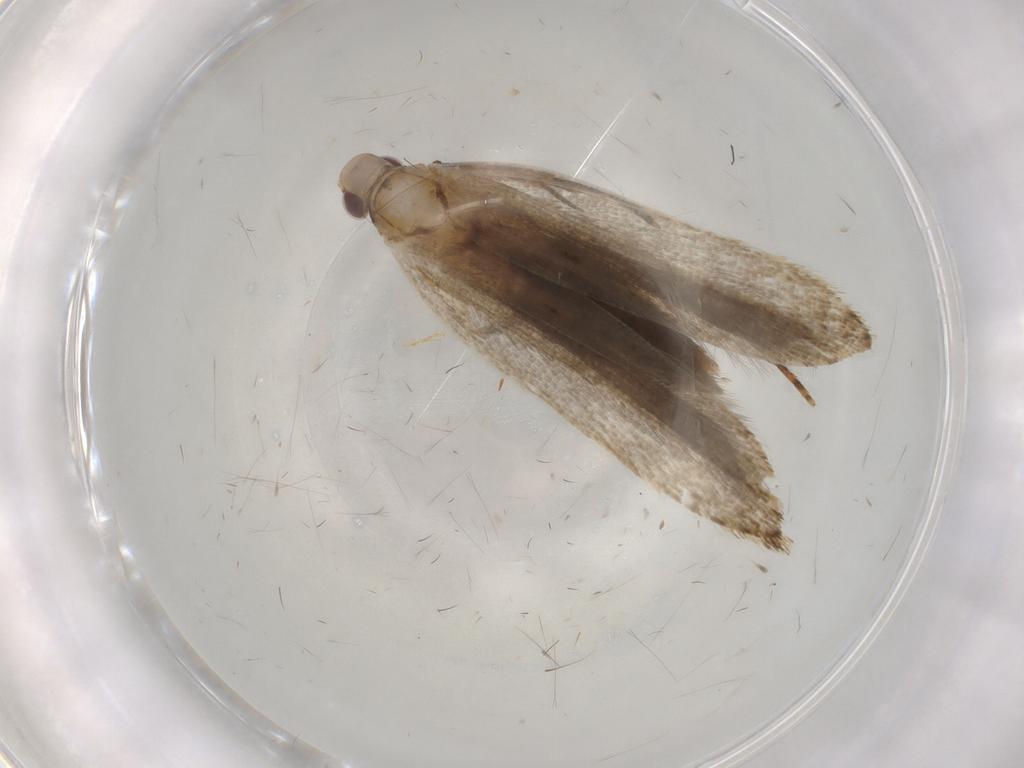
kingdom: Animalia
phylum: Arthropoda
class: Insecta
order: Lepidoptera
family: Gelechiidae
